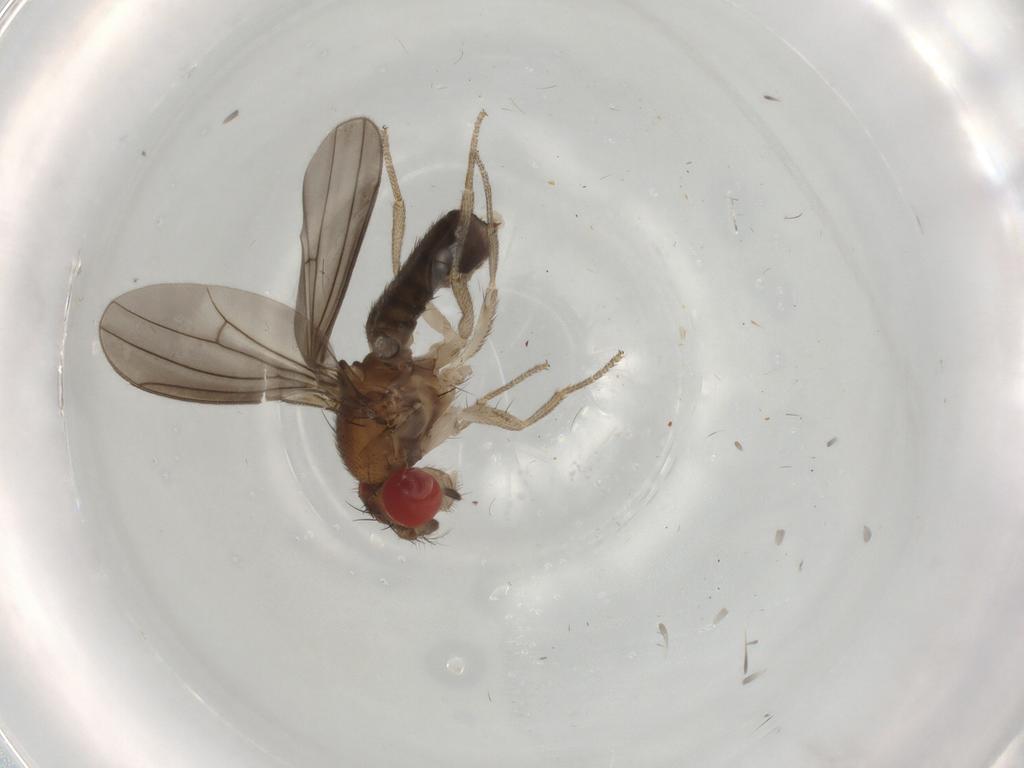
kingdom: Animalia
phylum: Arthropoda
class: Insecta
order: Diptera
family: Drosophilidae
